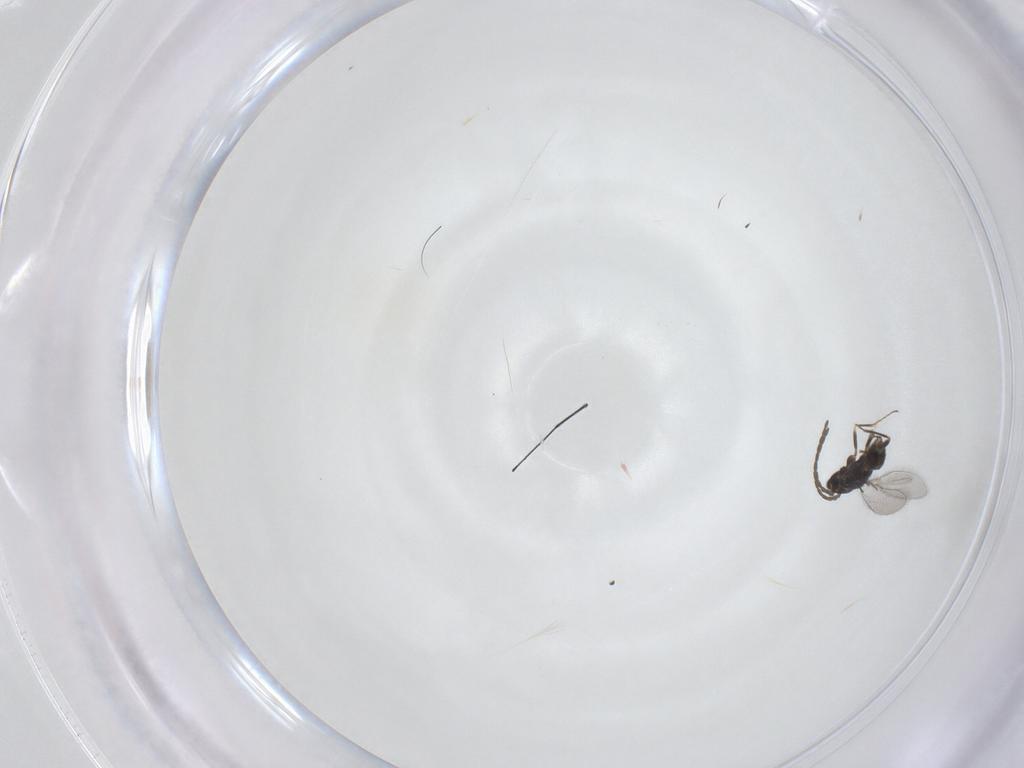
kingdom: Animalia
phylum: Arthropoda
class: Insecta
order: Hymenoptera
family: Mymaridae
